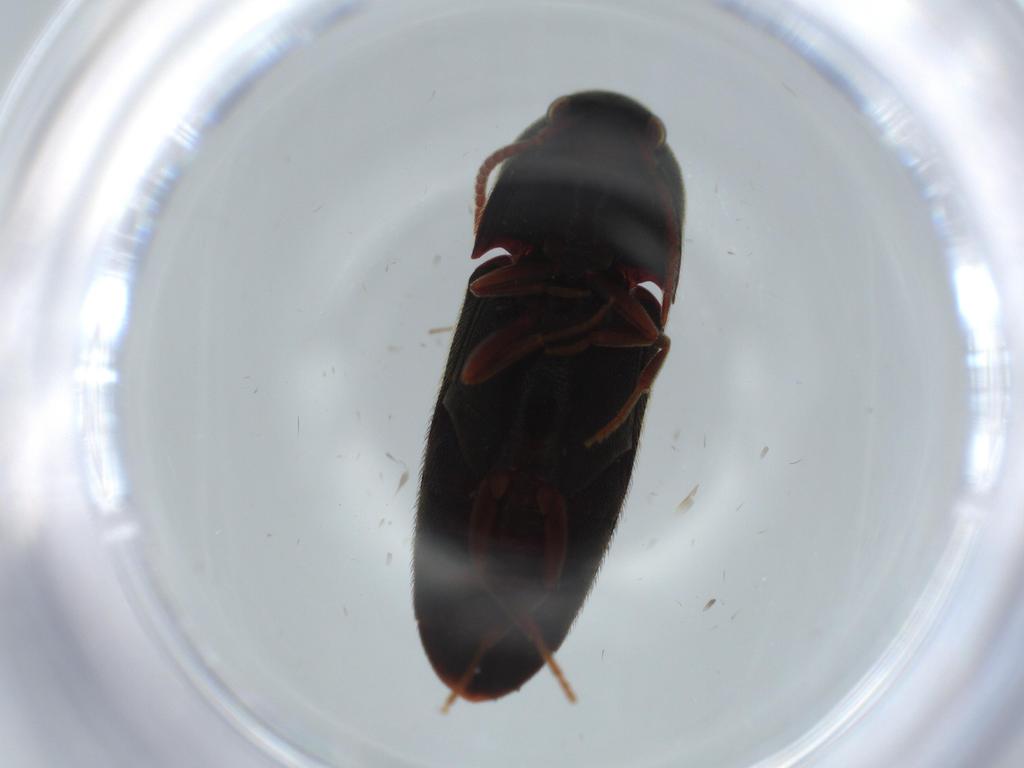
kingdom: Animalia
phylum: Arthropoda
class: Insecta
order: Coleoptera
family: Eucnemidae
